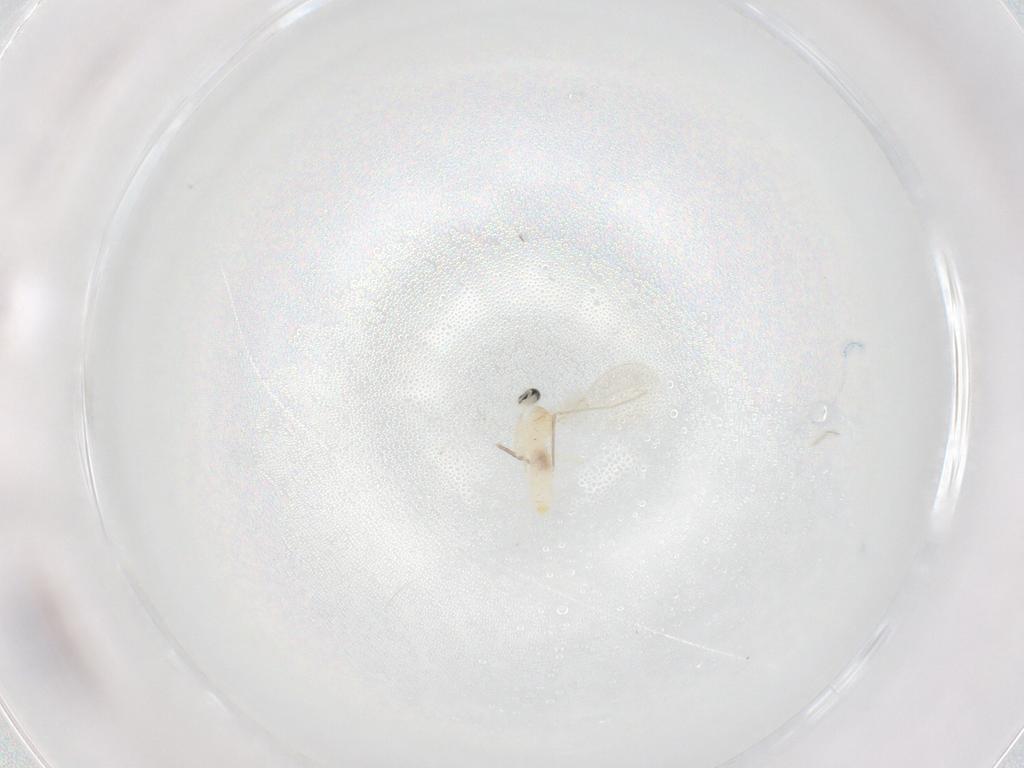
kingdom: Animalia
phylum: Arthropoda
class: Insecta
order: Diptera
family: Cecidomyiidae
